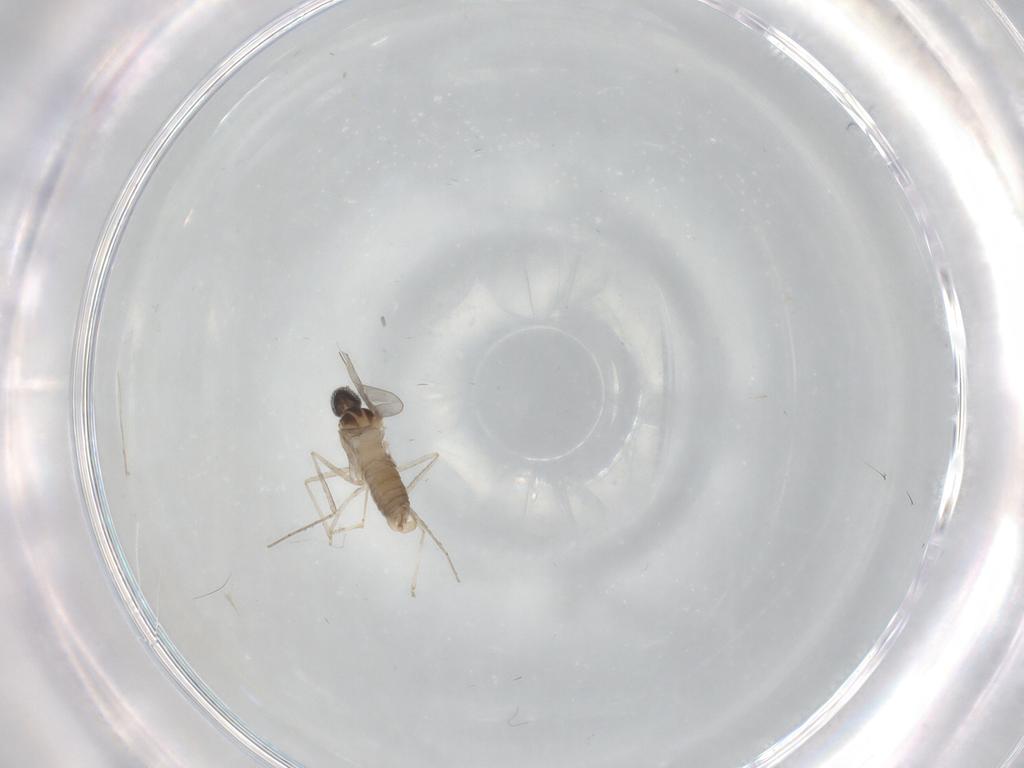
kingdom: Animalia
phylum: Arthropoda
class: Insecta
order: Diptera
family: Cecidomyiidae
